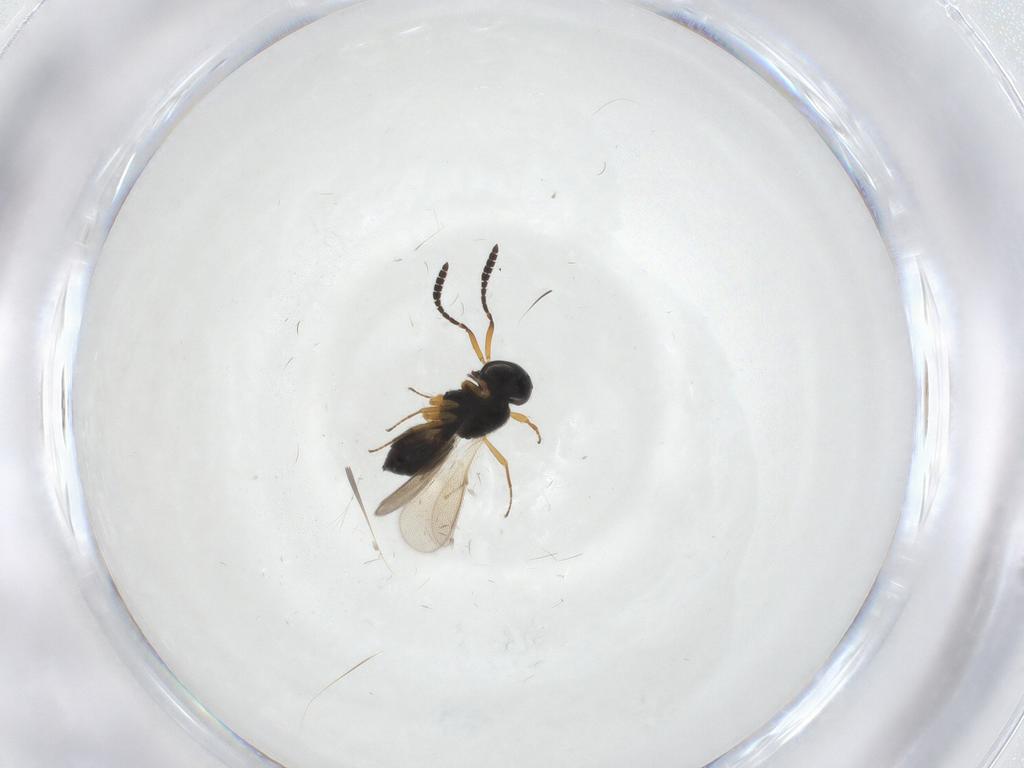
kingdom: Animalia
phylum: Arthropoda
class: Insecta
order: Hymenoptera
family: Scelionidae
